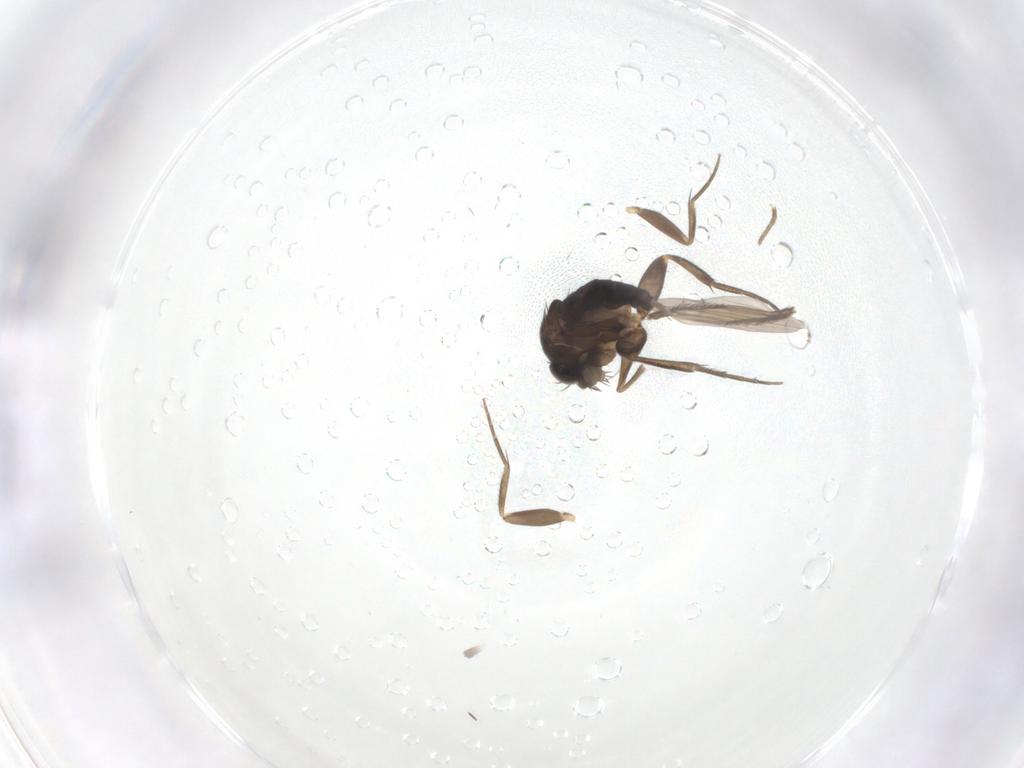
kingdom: Animalia
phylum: Arthropoda
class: Insecta
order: Diptera
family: Phoridae
